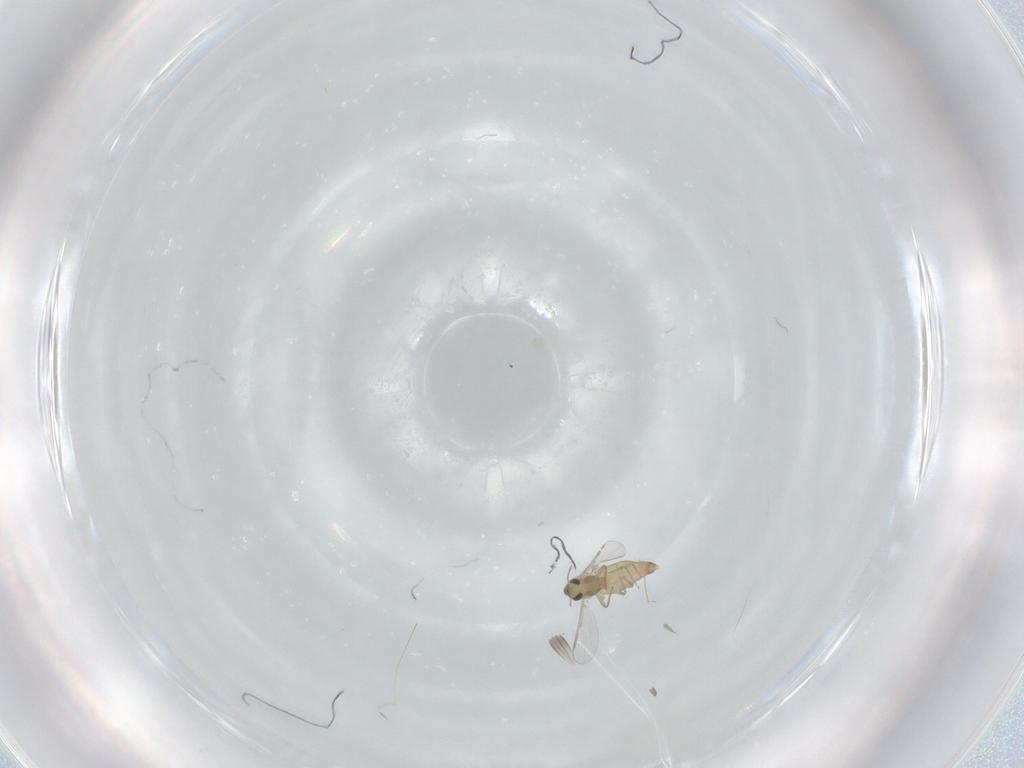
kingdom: Animalia
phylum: Arthropoda
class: Insecta
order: Diptera
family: Chironomidae
